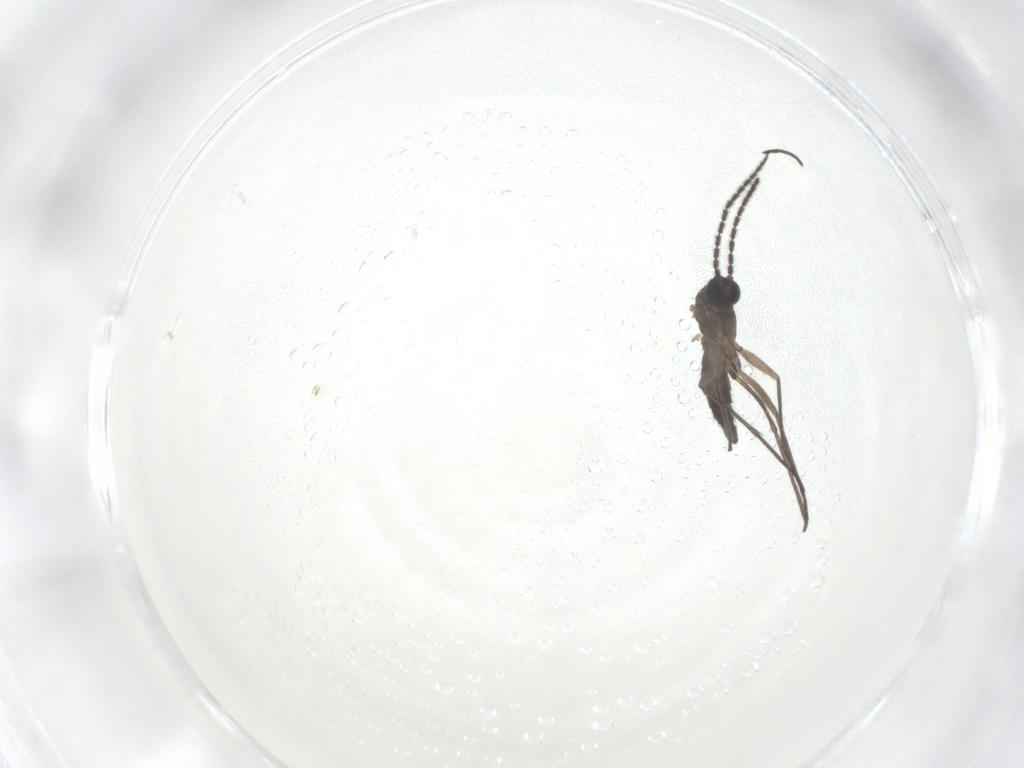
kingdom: Animalia
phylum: Arthropoda
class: Insecta
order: Diptera
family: Sciaridae
